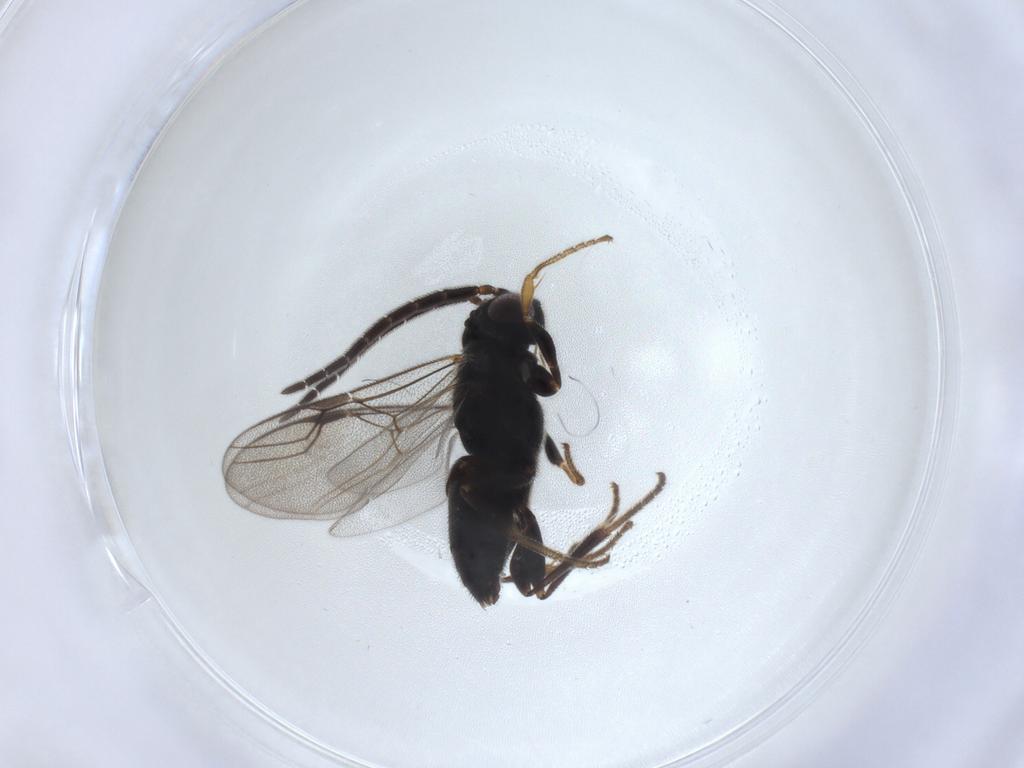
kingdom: Animalia
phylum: Arthropoda
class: Insecta
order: Hymenoptera
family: Dryinidae
